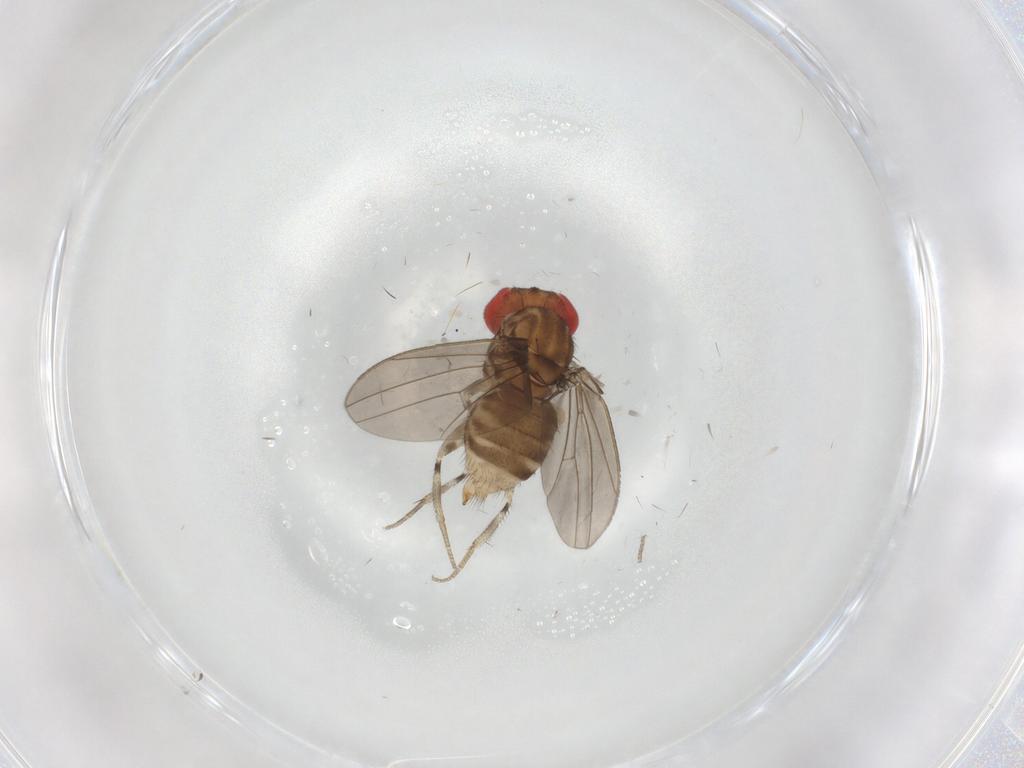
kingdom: Animalia
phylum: Arthropoda
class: Insecta
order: Diptera
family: Drosophilidae
